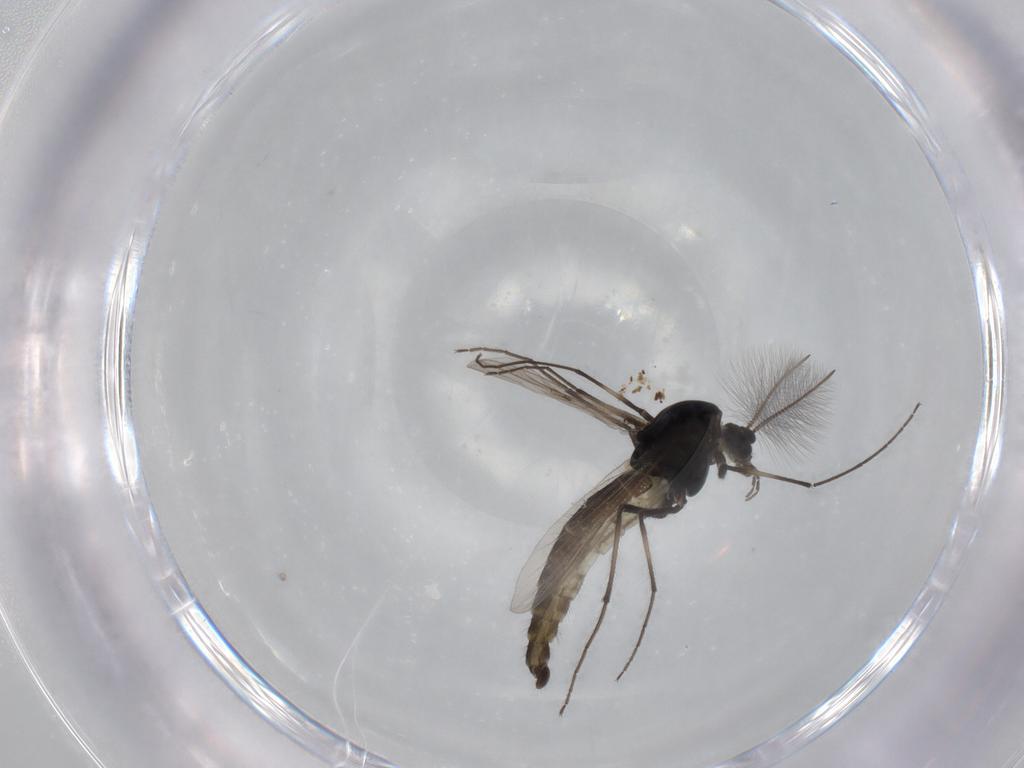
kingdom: Animalia
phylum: Arthropoda
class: Insecta
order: Diptera
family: Chironomidae
